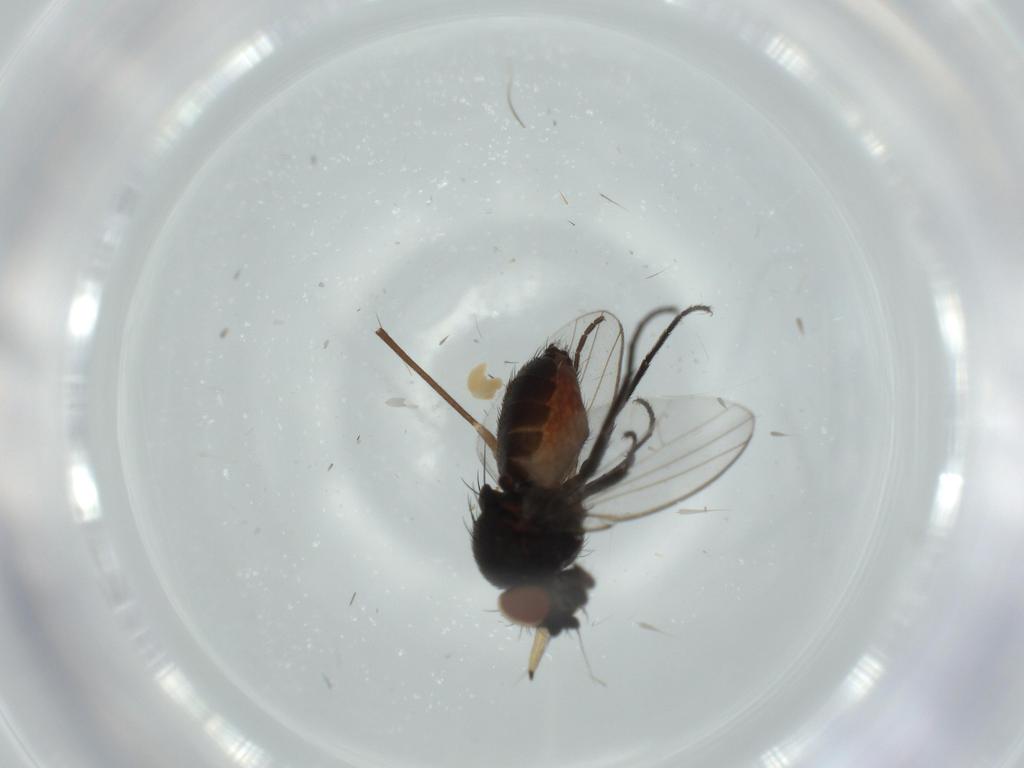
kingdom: Animalia
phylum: Arthropoda
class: Insecta
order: Diptera
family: Milichiidae
